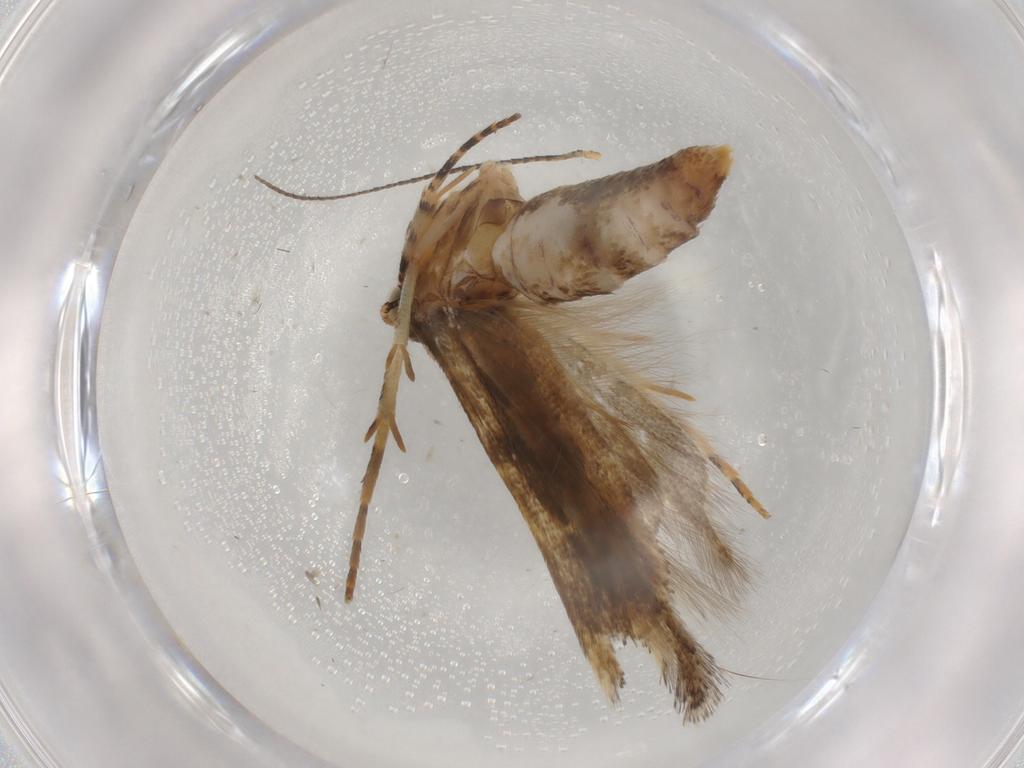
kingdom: Animalia
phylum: Arthropoda
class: Insecta
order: Lepidoptera
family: Gelechiidae
